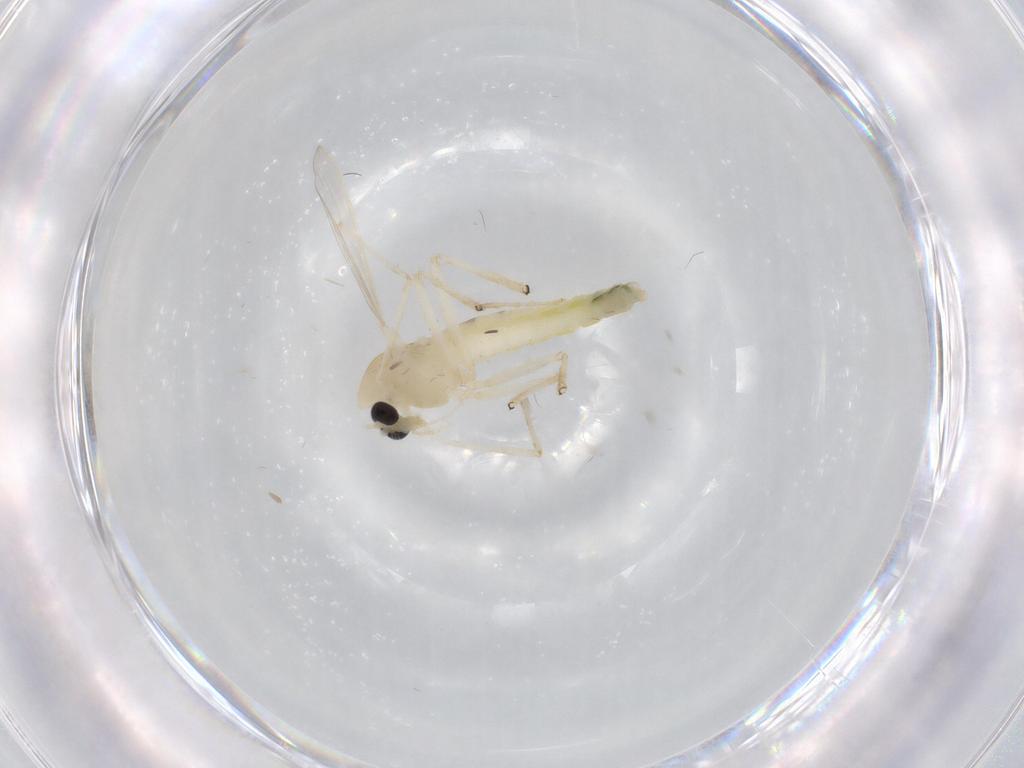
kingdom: Animalia
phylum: Arthropoda
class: Insecta
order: Diptera
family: Chironomidae
